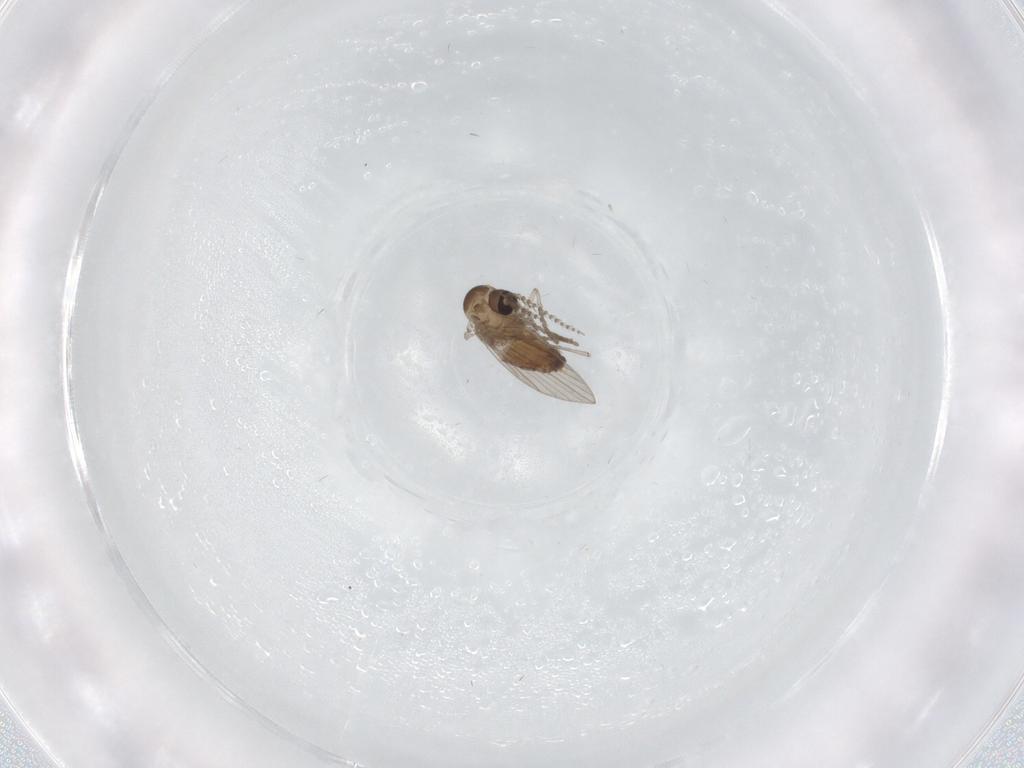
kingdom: Animalia
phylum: Arthropoda
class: Insecta
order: Diptera
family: Psychodidae
